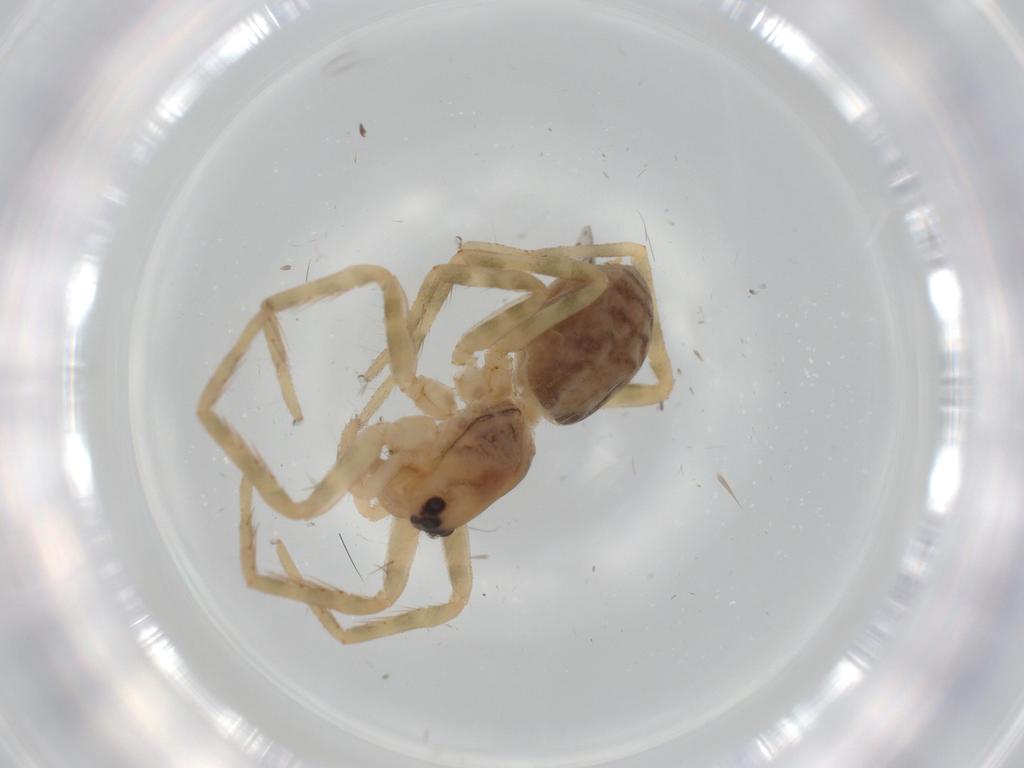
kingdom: Animalia
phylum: Arthropoda
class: Arachnida
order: Araneae
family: Ctenidae
